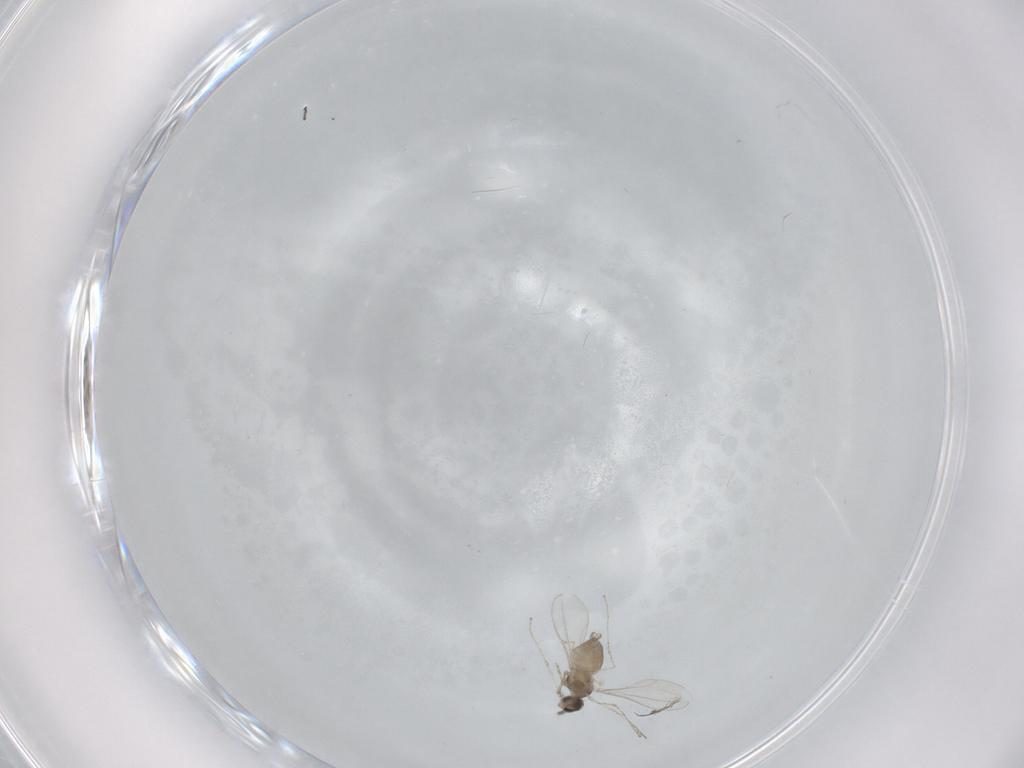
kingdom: Animalia
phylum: Arthropoda
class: Insecta
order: Diptera
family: Cecidomyiidae
